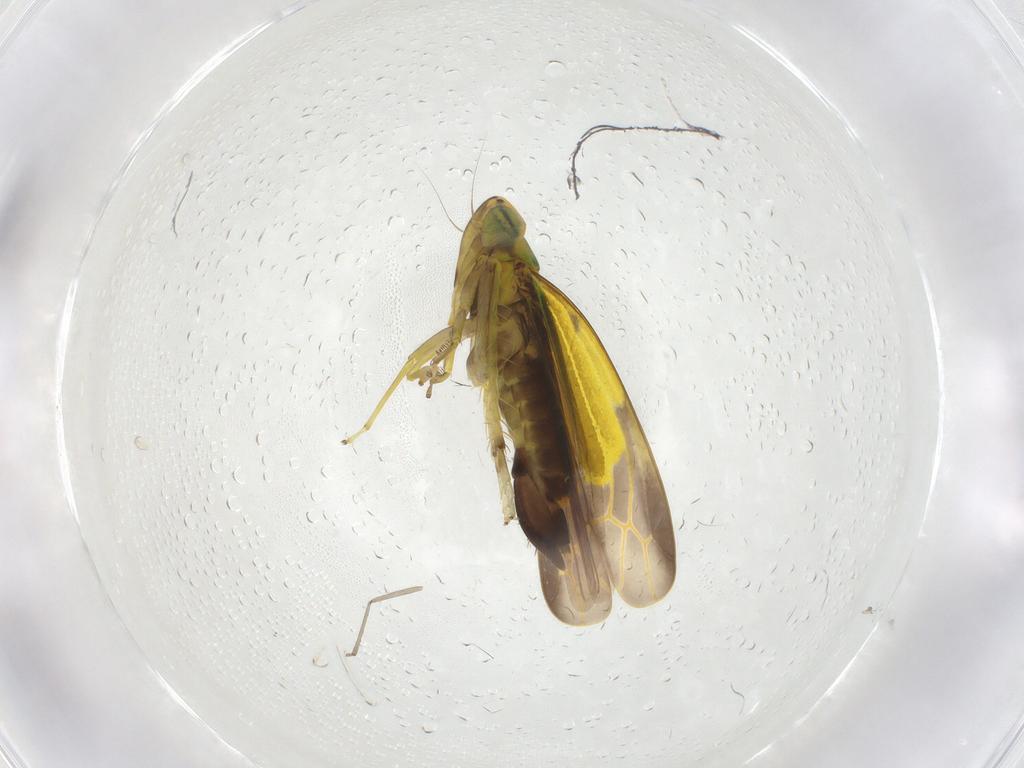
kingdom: Animalia
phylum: Arthropoda
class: Insecta
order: Hemiptera
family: Cicadellidae
